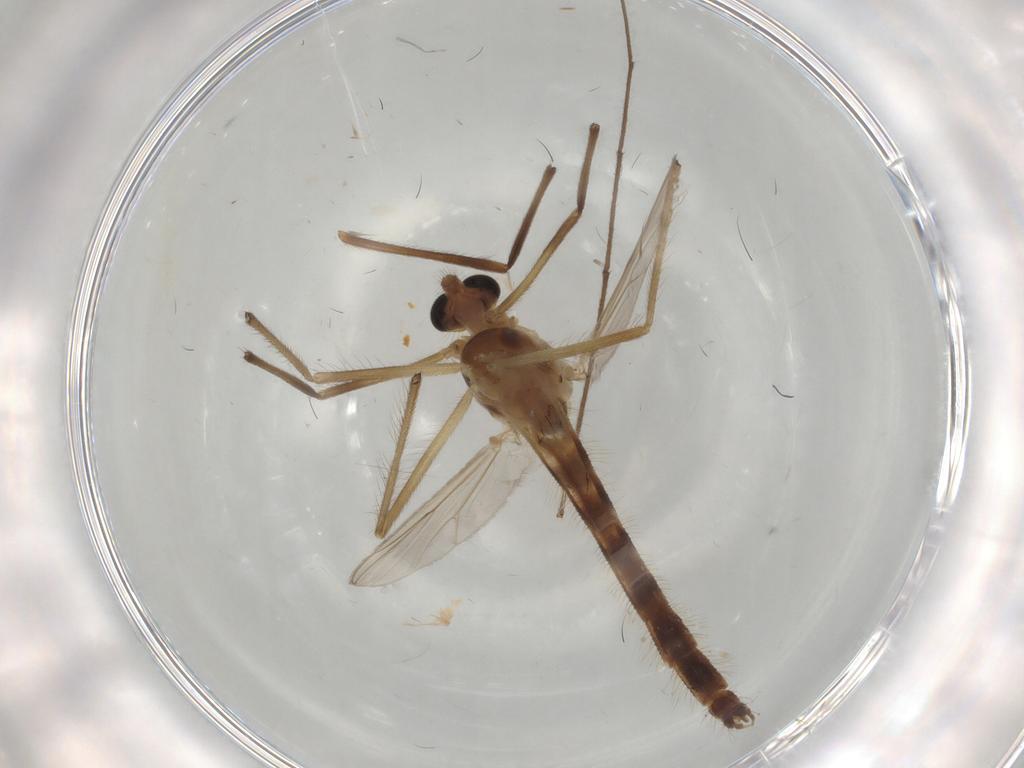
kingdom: Animalia
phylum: Arthropoda
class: Insecta
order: Diptera
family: Chironomidae
